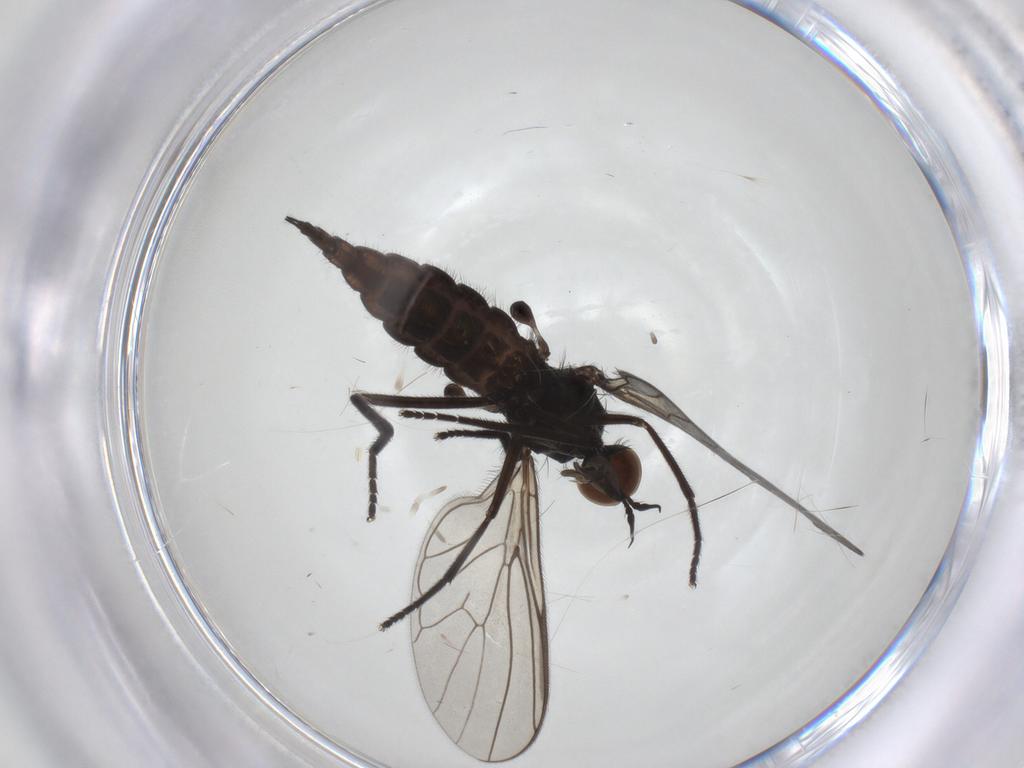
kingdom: Animalia
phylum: Arthropoda
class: Insecta
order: Diptera
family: Empididae
